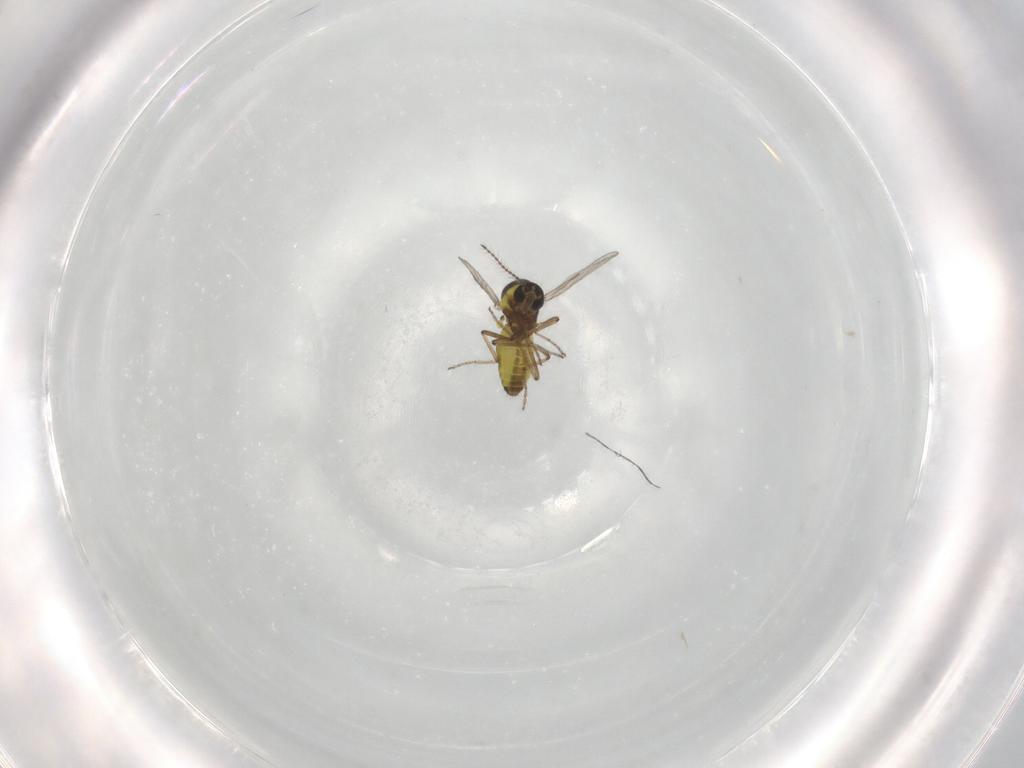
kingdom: Animalia
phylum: Arthropoda
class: Insecta
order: Diptera
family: Ceratopogonidae
